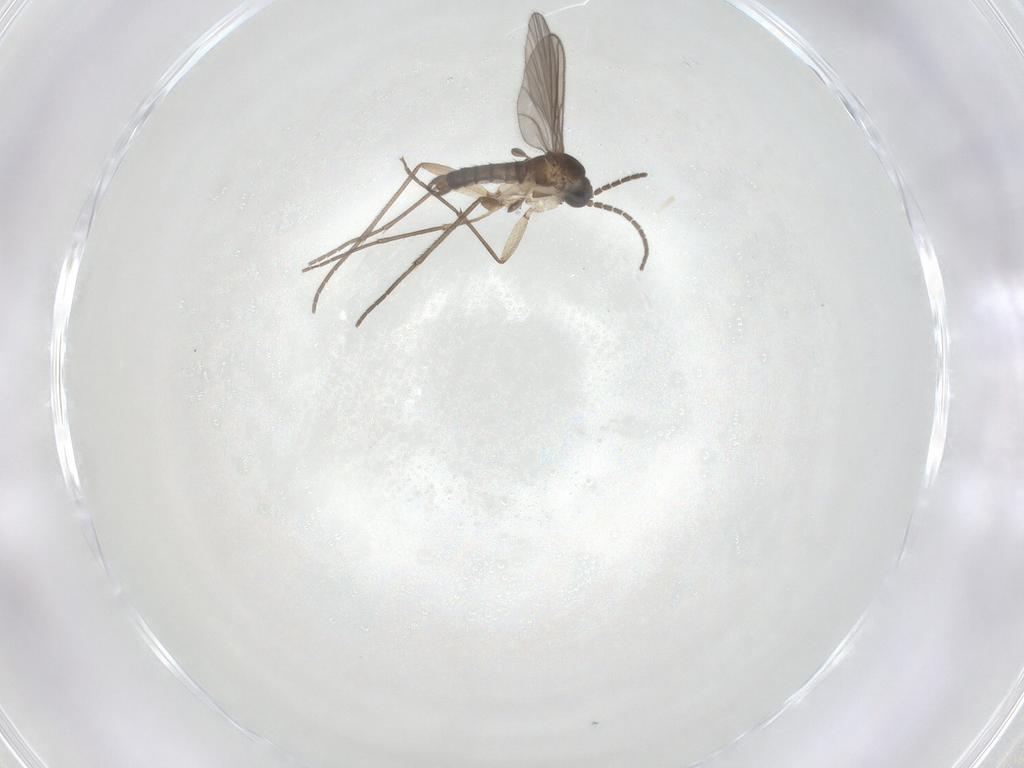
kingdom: Animalia
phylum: Arthropoda
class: Insecta
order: Diptera
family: Sciaridae
